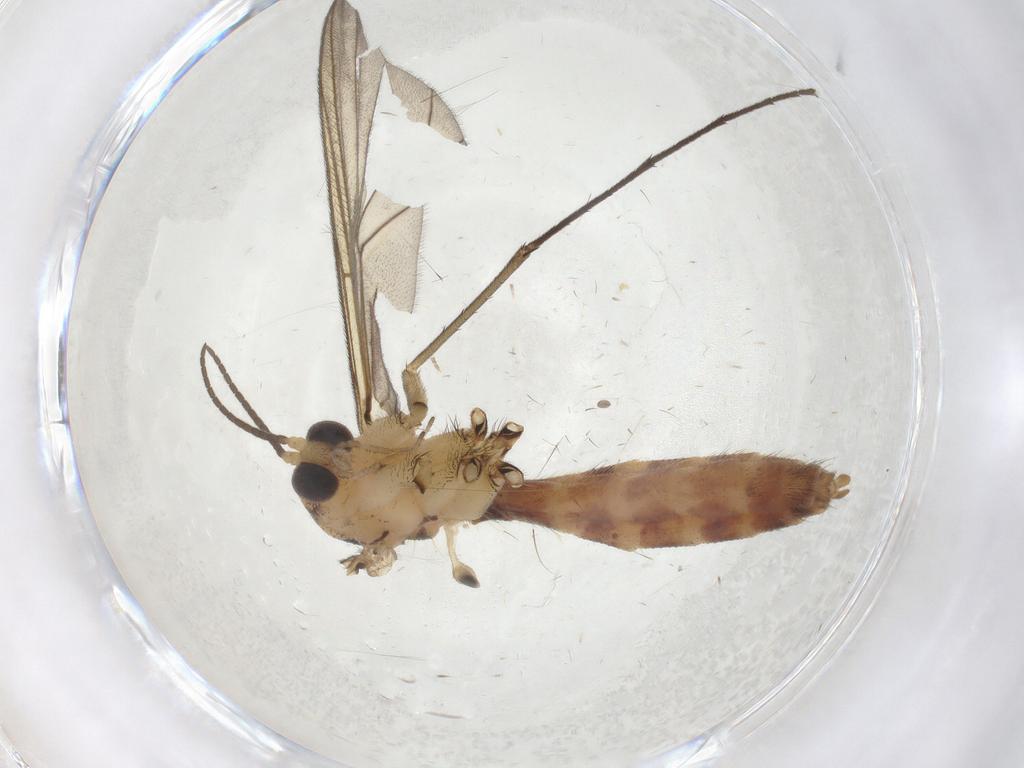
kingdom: Animalia
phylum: Arthropoda
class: Insecta
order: Diptera
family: Mycetophilidae
